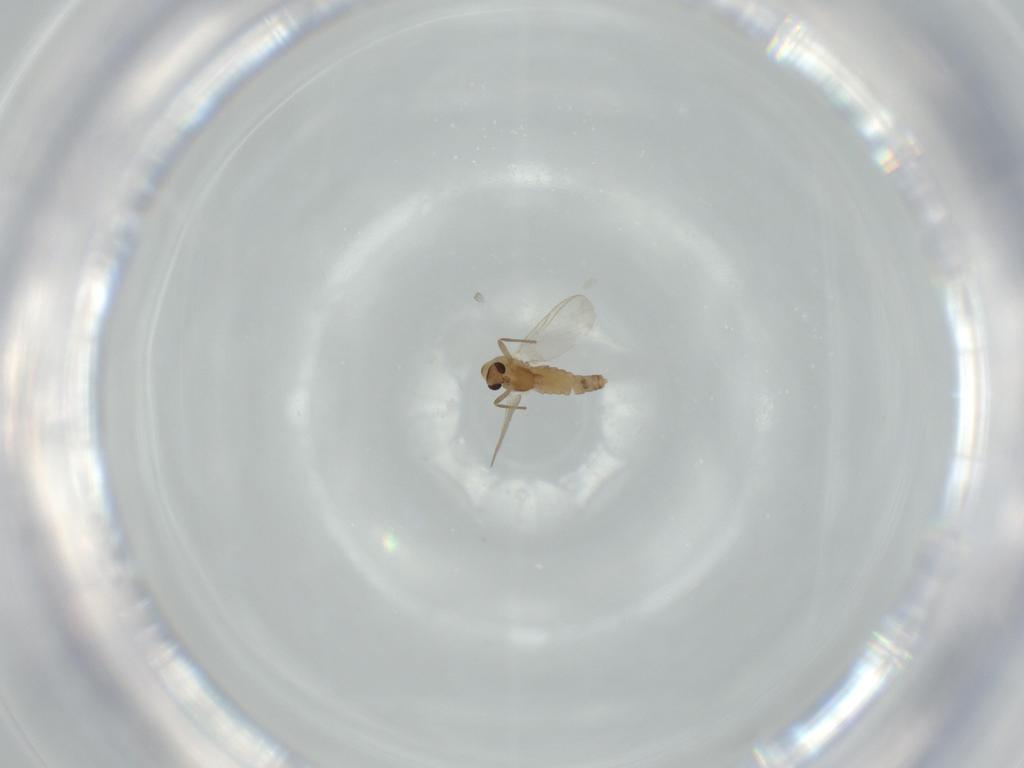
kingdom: Animalia
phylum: Arthropoda
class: Insecta
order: Diptera
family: Chironomidae
